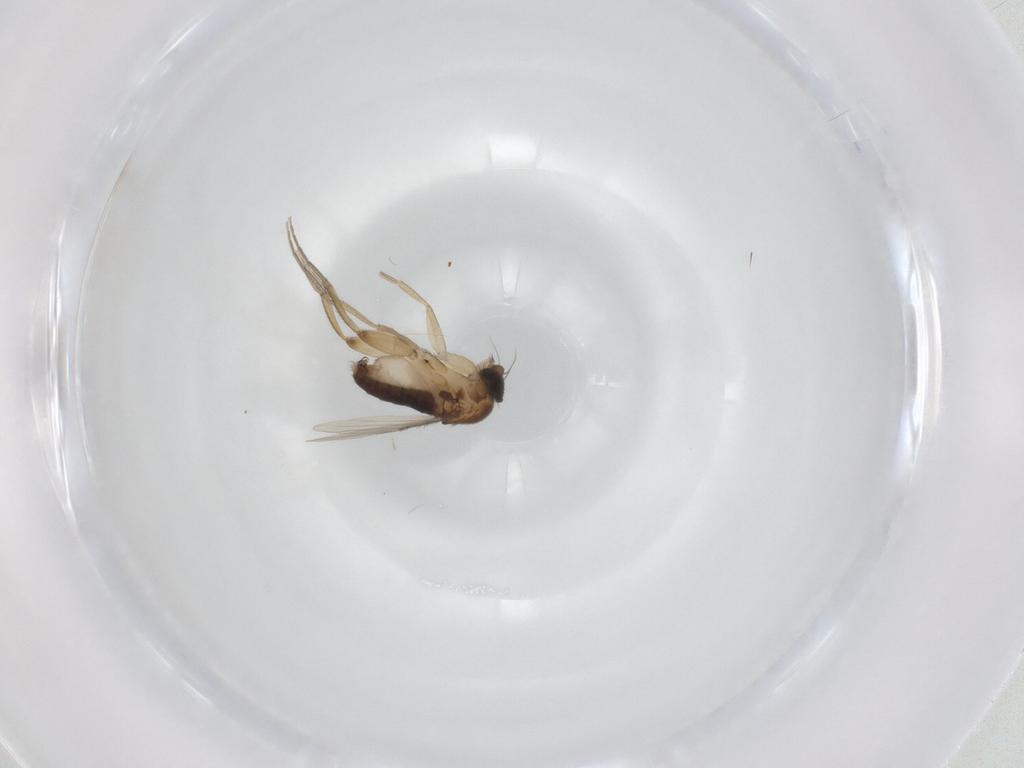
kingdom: Animalia
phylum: Arthropoda
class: Insecta
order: Diptera
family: Phoridae
